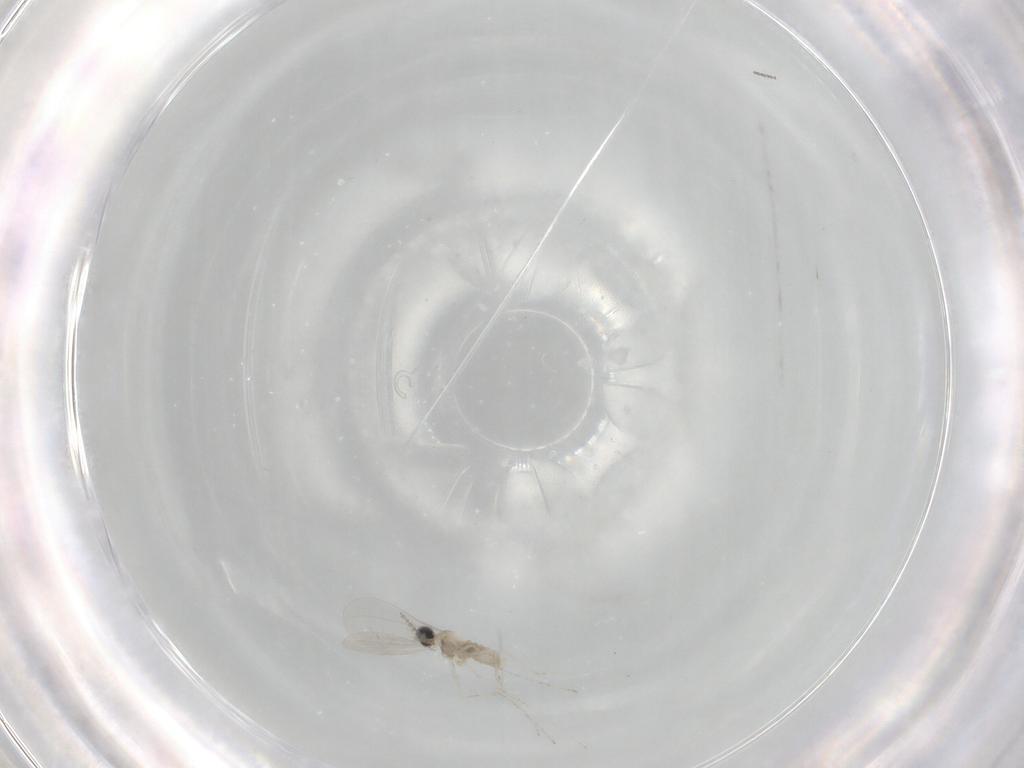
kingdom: Animalia
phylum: Arthropoda
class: Insecta
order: Diptera
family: Cecidomyiidae
